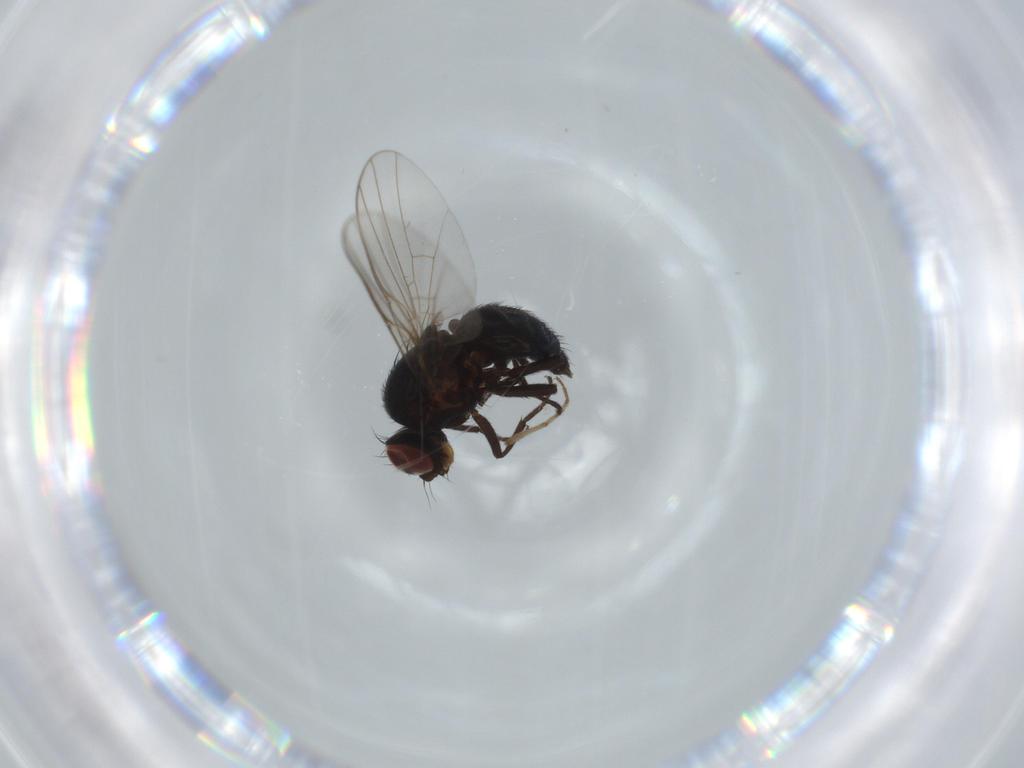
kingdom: Animalia
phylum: Arthropoda
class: Insecta
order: Diptera
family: Agromyzidae
